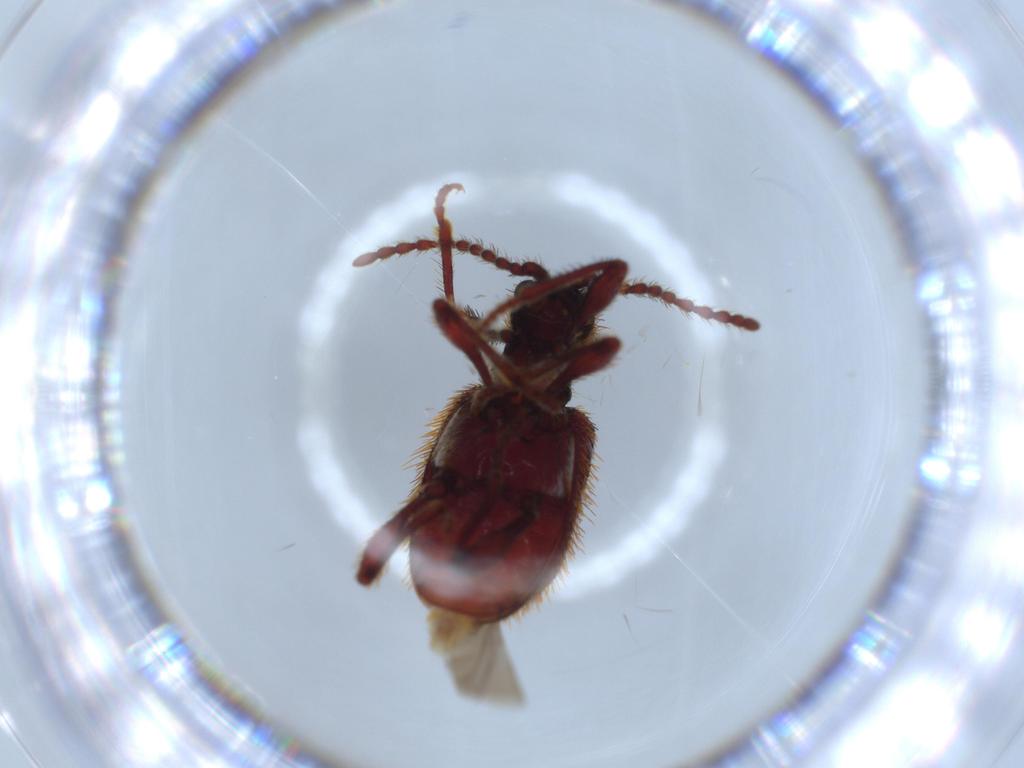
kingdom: Animalia
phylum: Arthropoda
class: Insecta
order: Coleoptera
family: Ptinidae
